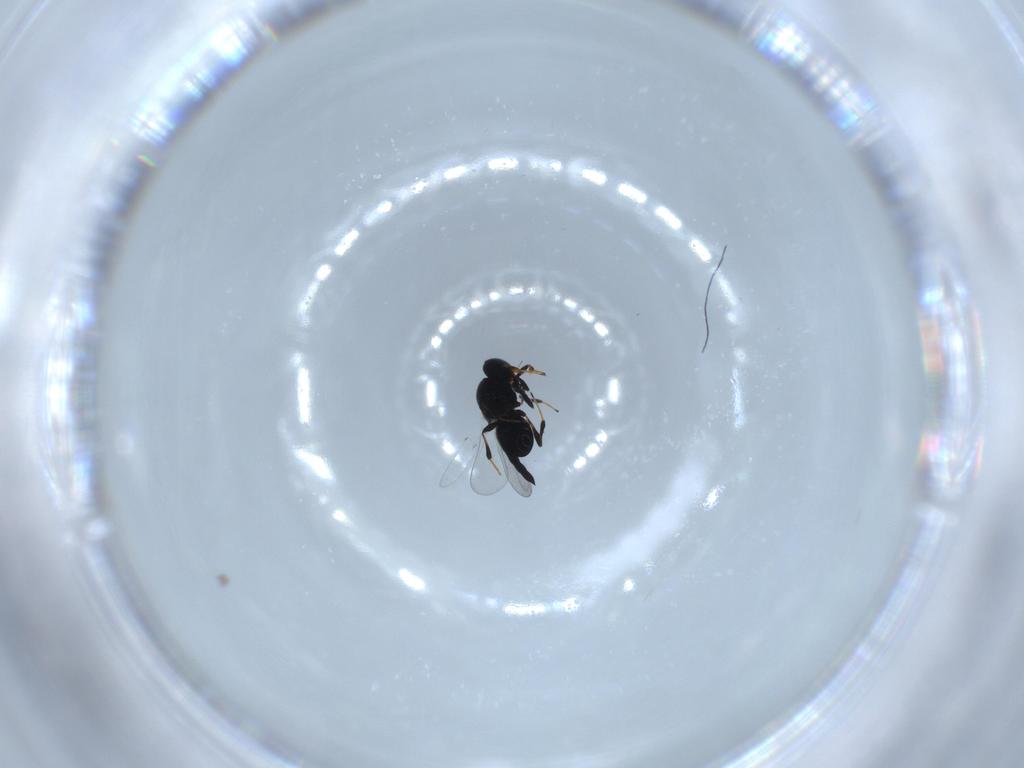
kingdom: Animalia
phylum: Arthropoda
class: Insecta
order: Hymenoptera
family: Platygastridae
